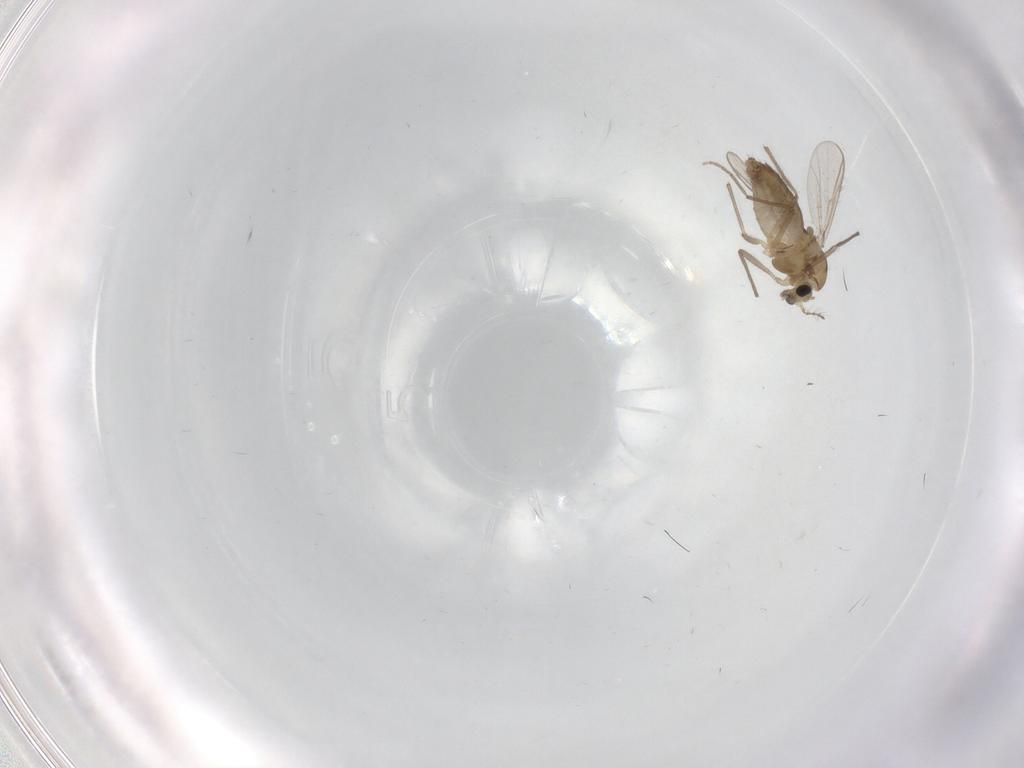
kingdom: Animalia
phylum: Arthropoda
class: Insecta
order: Diptera
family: Chironomidae
